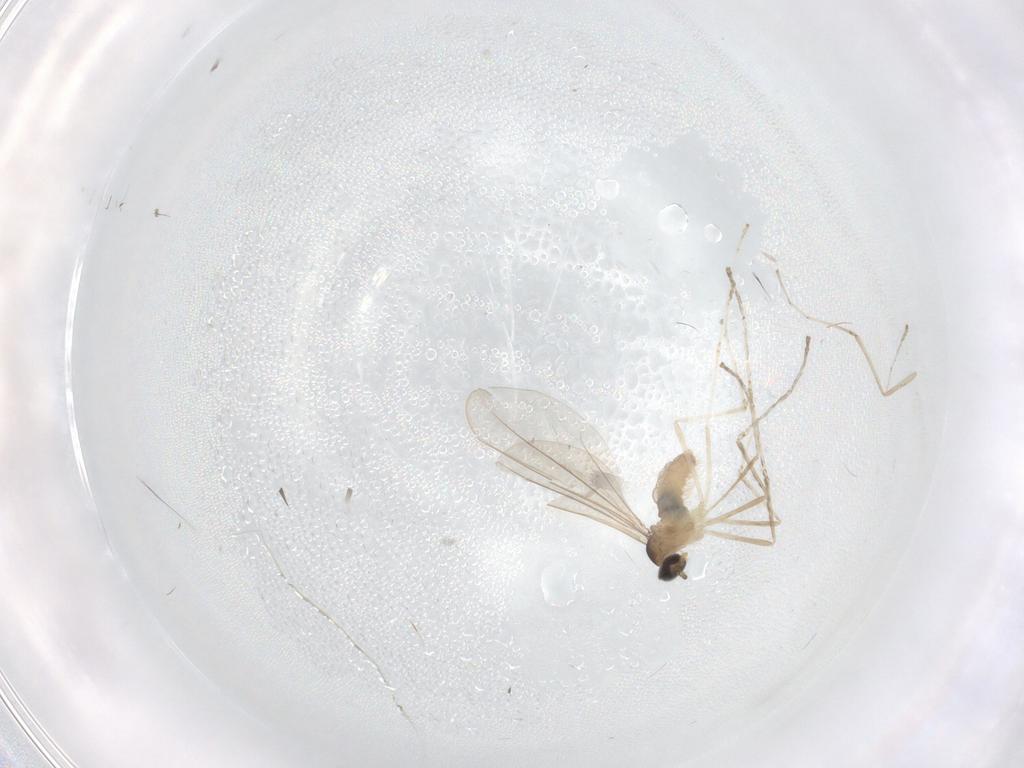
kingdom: Animalia
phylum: Arthropoda
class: Insecta
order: Diptera
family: Cecidomyiidae
